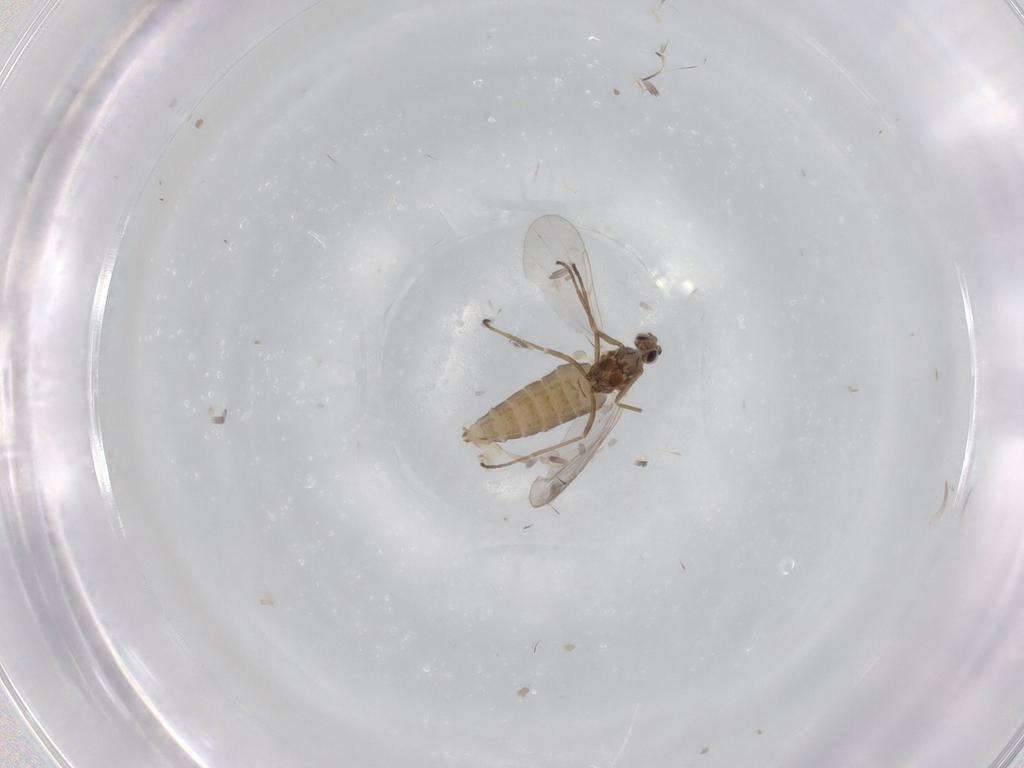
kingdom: Animalia
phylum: Arthropoda
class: Insecta
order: Diptera
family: Cecidomyiidae
